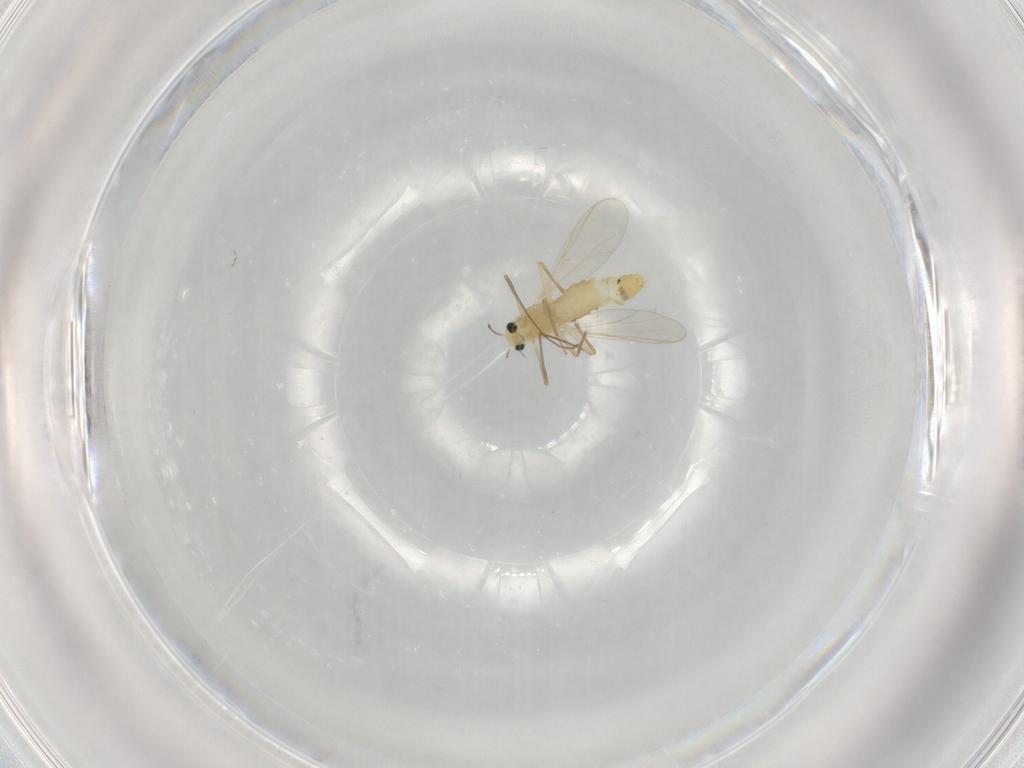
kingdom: Animalia
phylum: Arthropoda
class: Insecta
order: Diptera
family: Chironomidae
